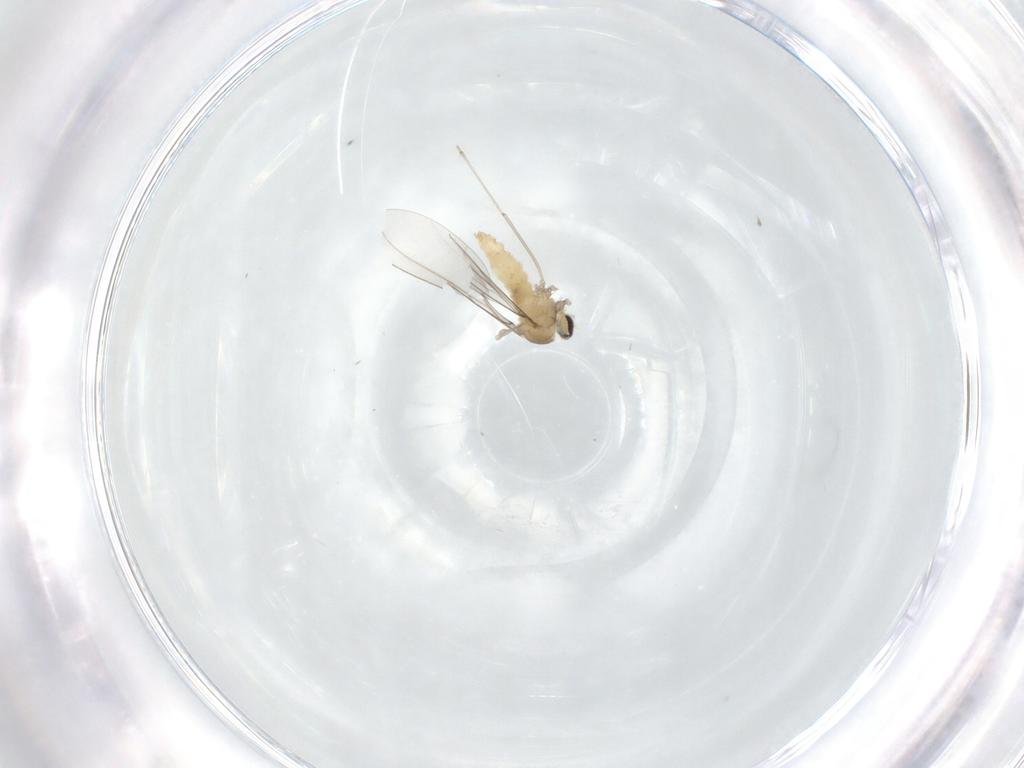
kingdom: Animalia
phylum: Arthropoda
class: Insecta
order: Diptera
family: Cecidomyiidae
